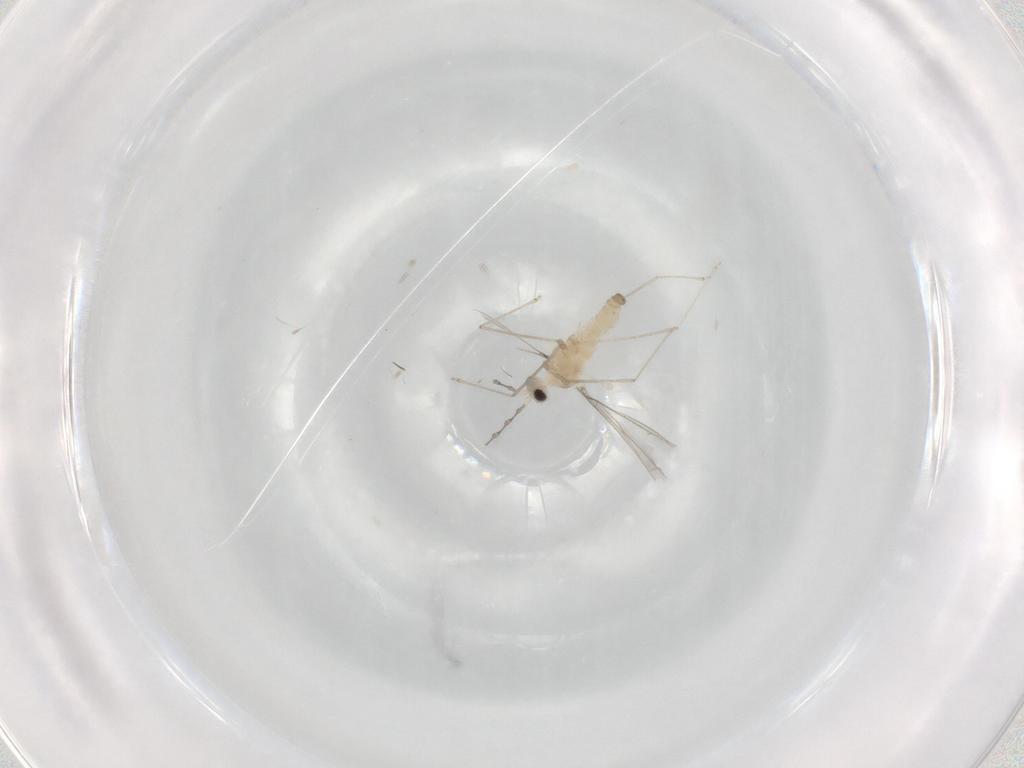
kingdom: Animalia
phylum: Arthropoda
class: Insecta
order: Diptera
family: Cecidomyiidae
